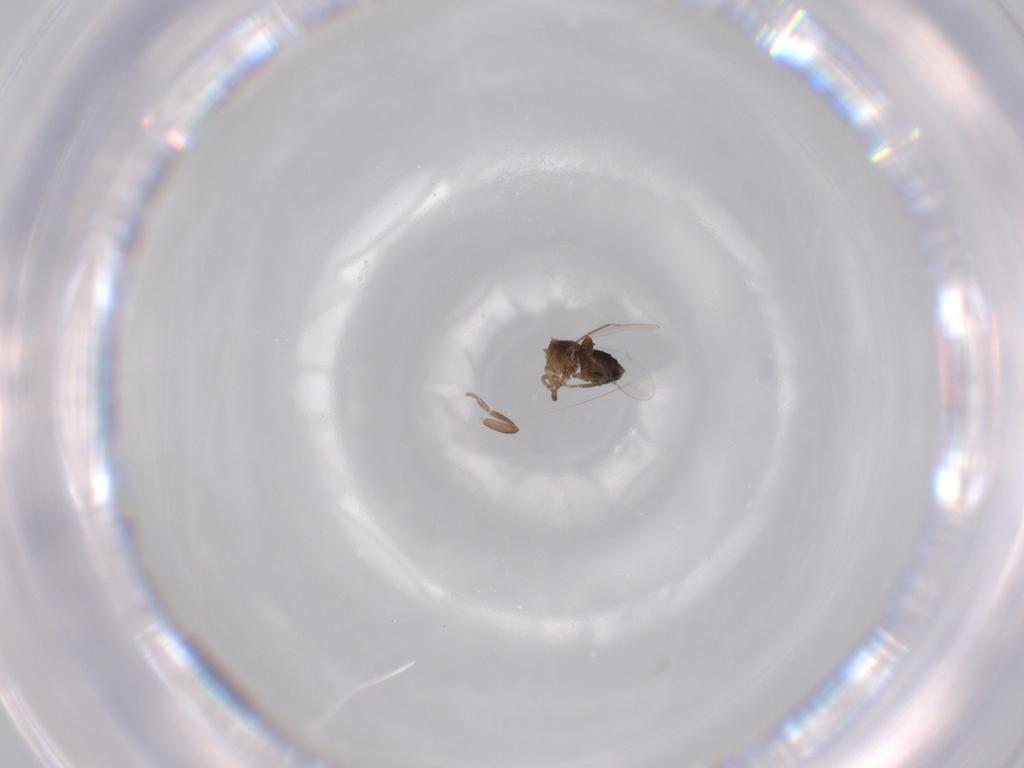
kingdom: Animalia
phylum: Arthropoda
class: Insecta
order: Diptera
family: Phoridae
